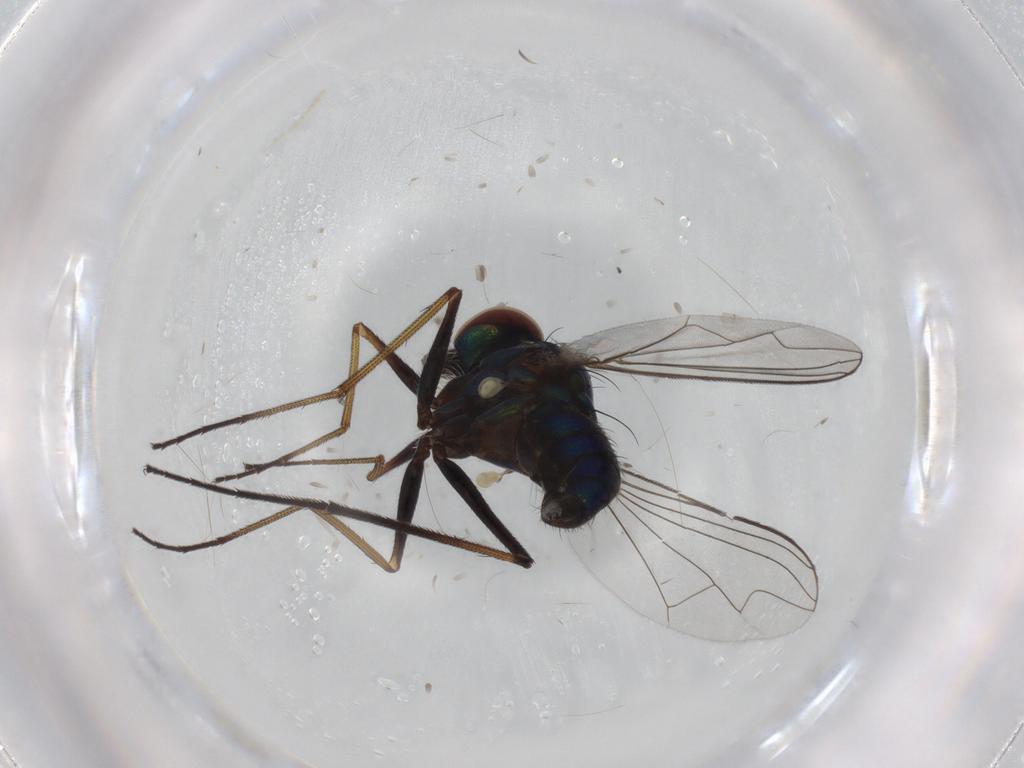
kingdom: Animalia
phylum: Arthropoda
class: Insecta
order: Diptera
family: Dolichopodidae
